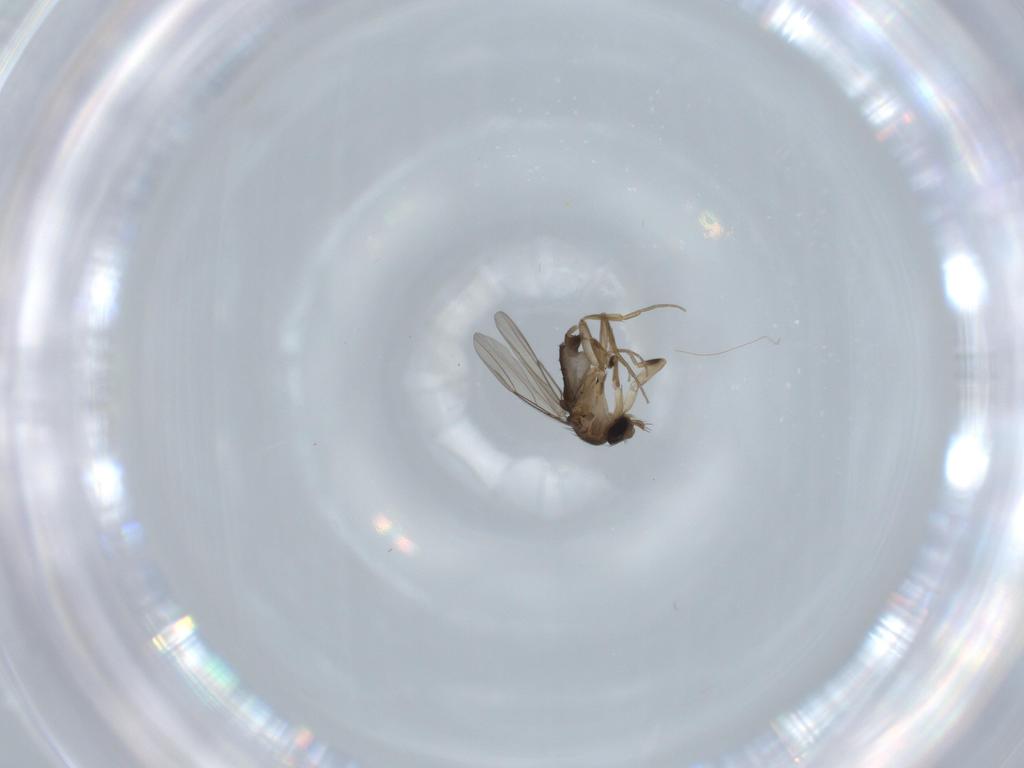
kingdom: Animalia
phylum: Arthropoda
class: Insecta
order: Diptera
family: Phoridae
